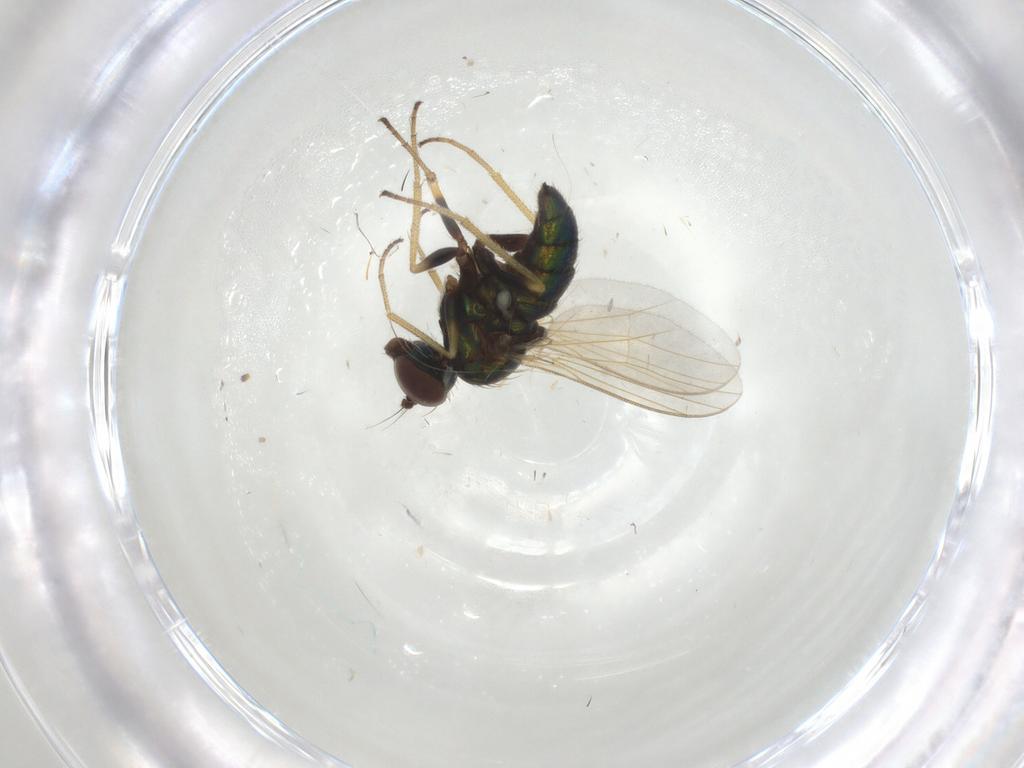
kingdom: Animalia
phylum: Arthropoda
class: Insecta
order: Diptera
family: Dolichopodidae
